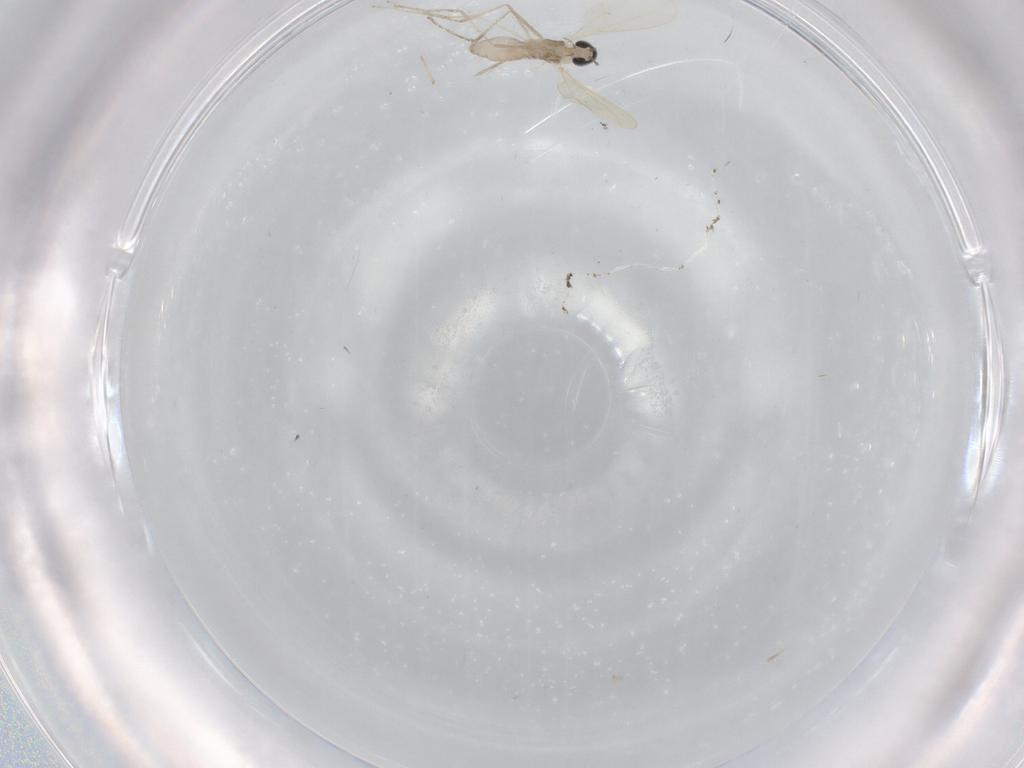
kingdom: Animalia
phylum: Arthropoda
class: Insecta
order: Diptera
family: Cecidomyiidae
